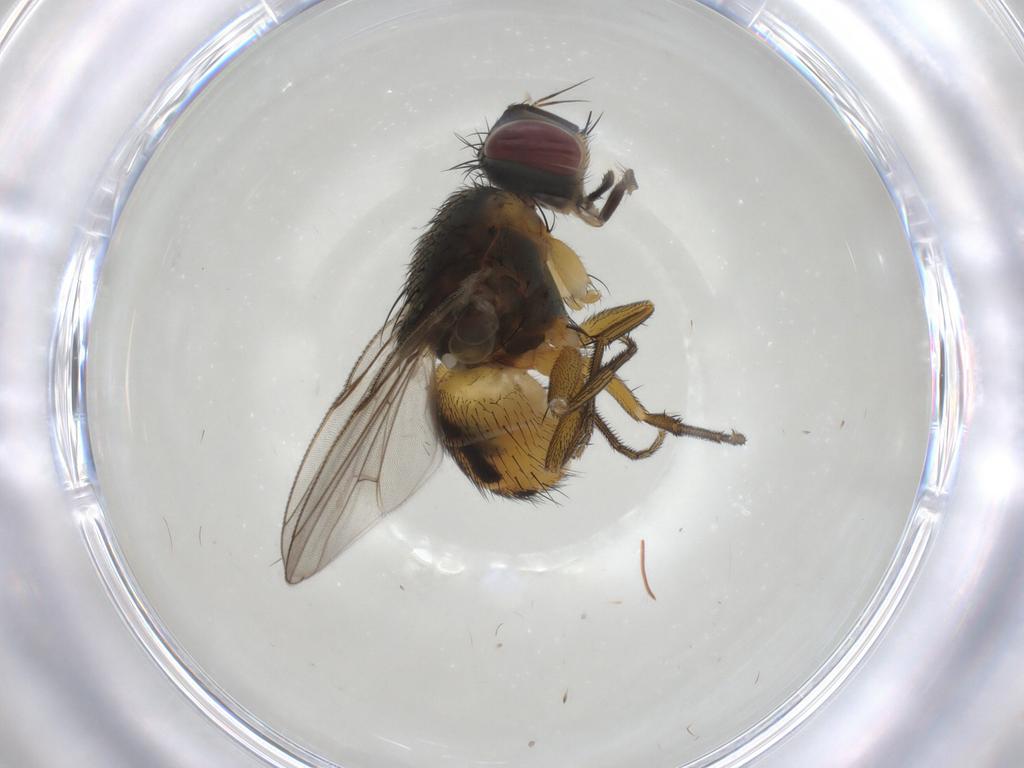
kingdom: Animalia
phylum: Arthropoda
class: Insecta
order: Diptera
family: Muscidae
